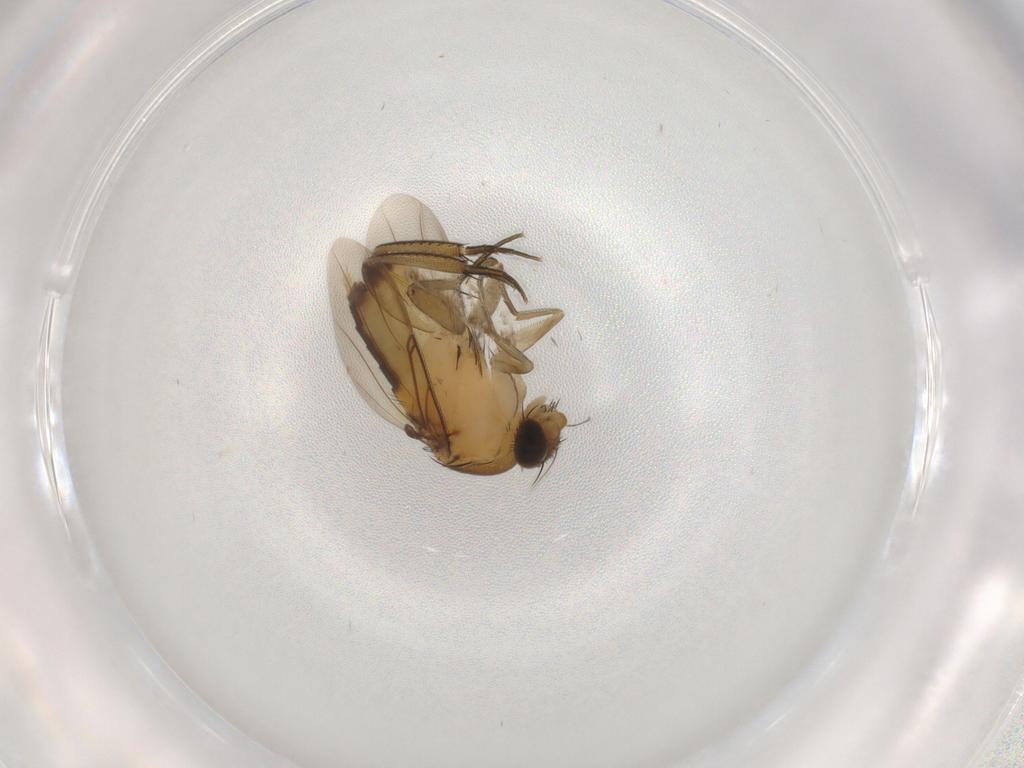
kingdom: Animalia
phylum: Arthropoda
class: Insecta
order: Diptera
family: Phoridae
